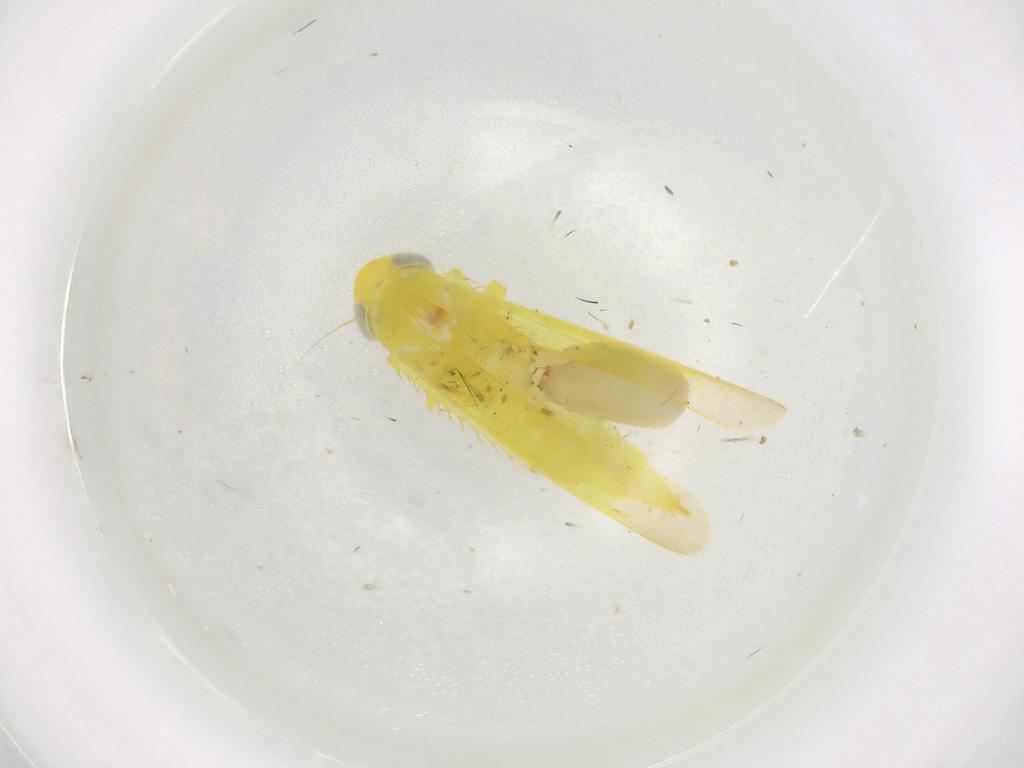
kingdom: Animalia
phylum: Arthropoda
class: Insecta
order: Hemiptera
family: Cicadellidae
